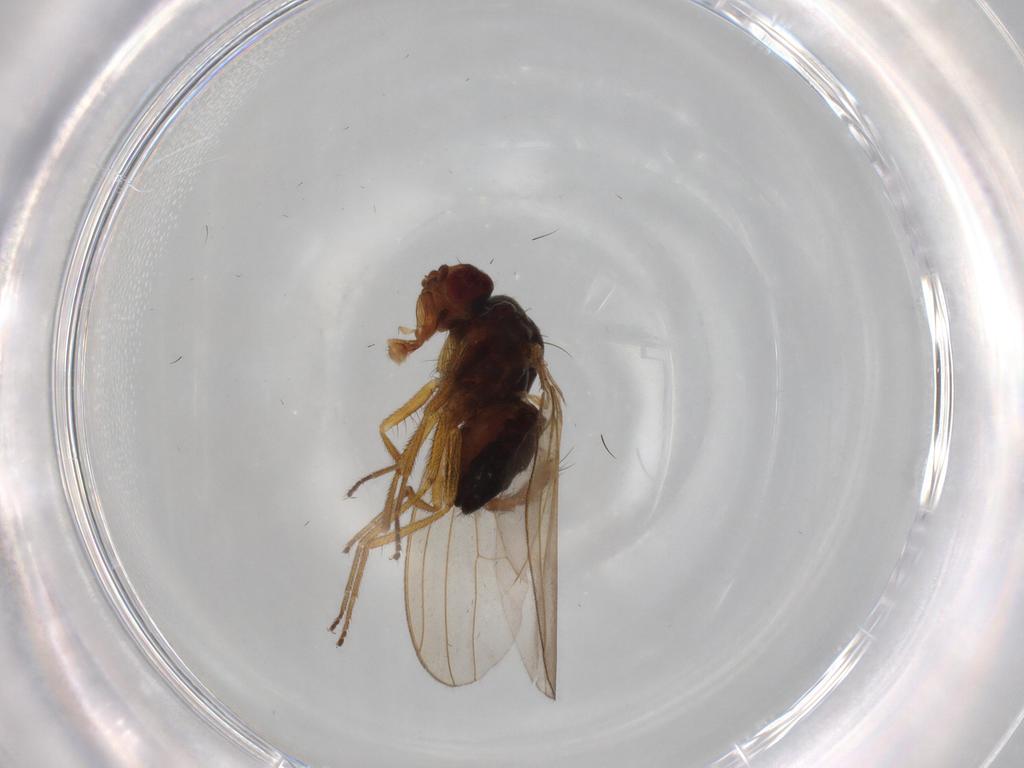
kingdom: Animalia
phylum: Arthropoda
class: Insecta
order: Diptera
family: Drosophilidae
